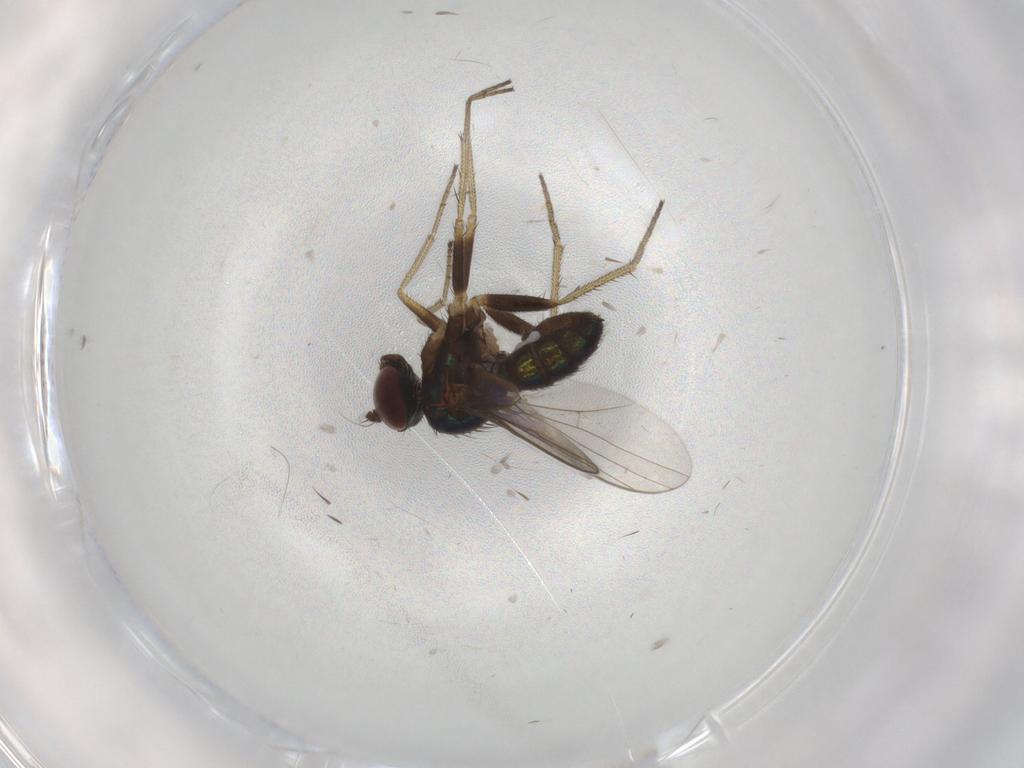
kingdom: Animalia
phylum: Arthropoda
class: Insecta
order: Diptera
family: Dolichopodidae
